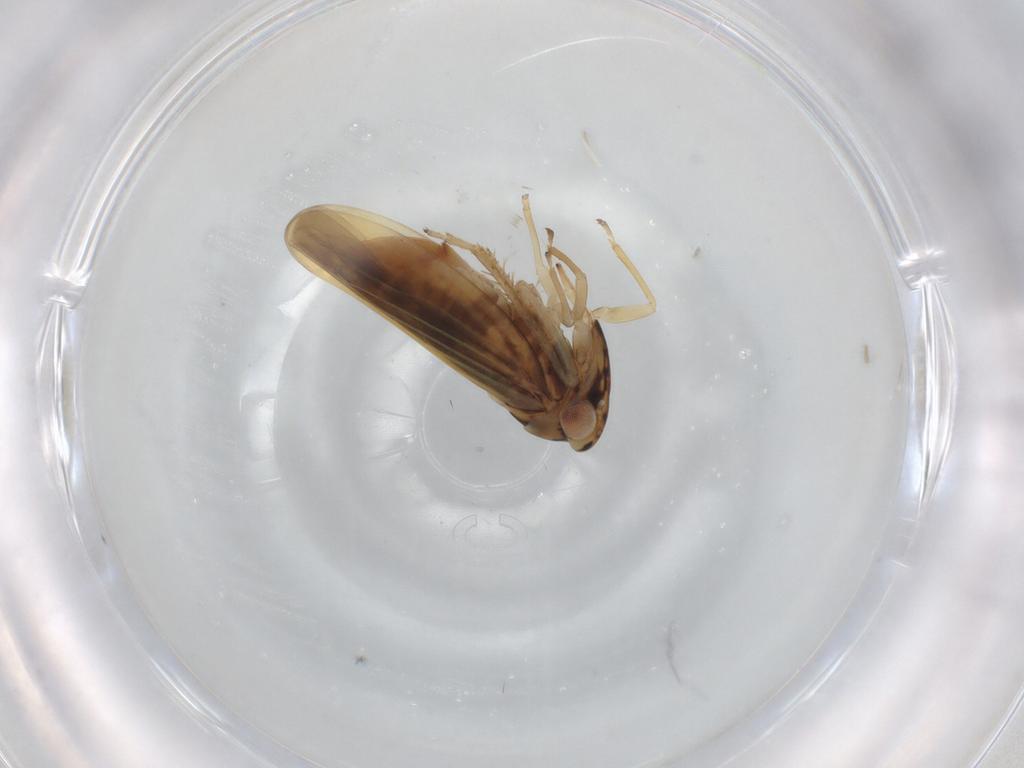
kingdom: Animalia
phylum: Arthropoda
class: Insecta
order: Hemiptera
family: Cicadellidae
